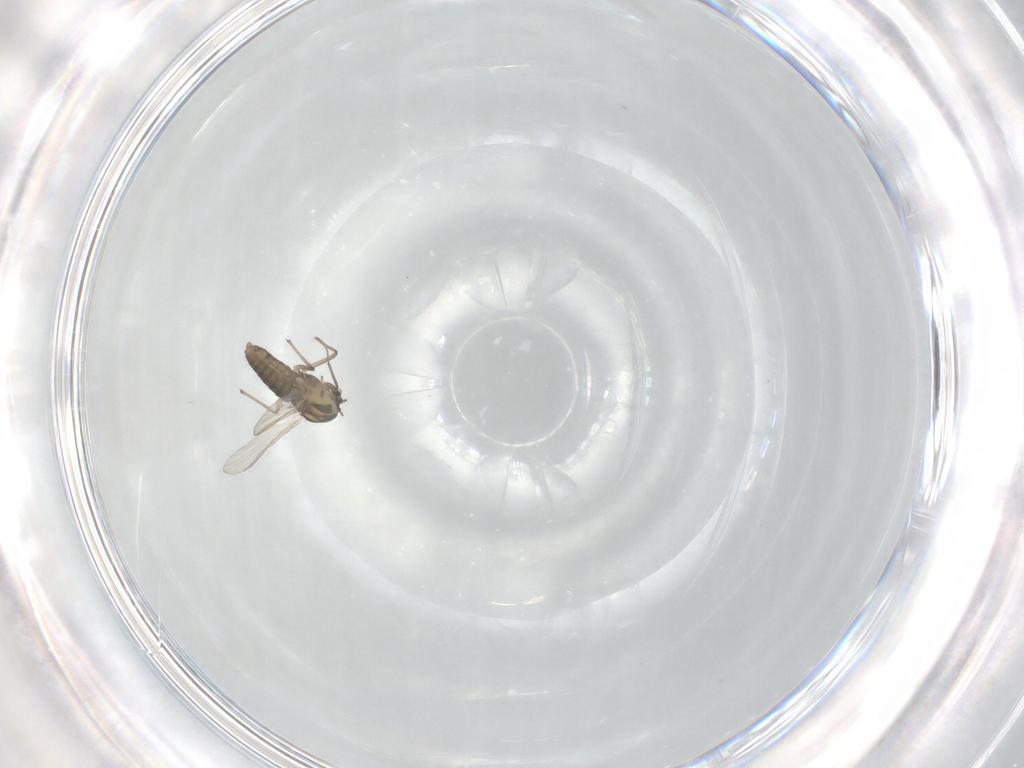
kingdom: Animalia
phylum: Arthropoda
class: Insecta
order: Diptera
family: Chironomidae
